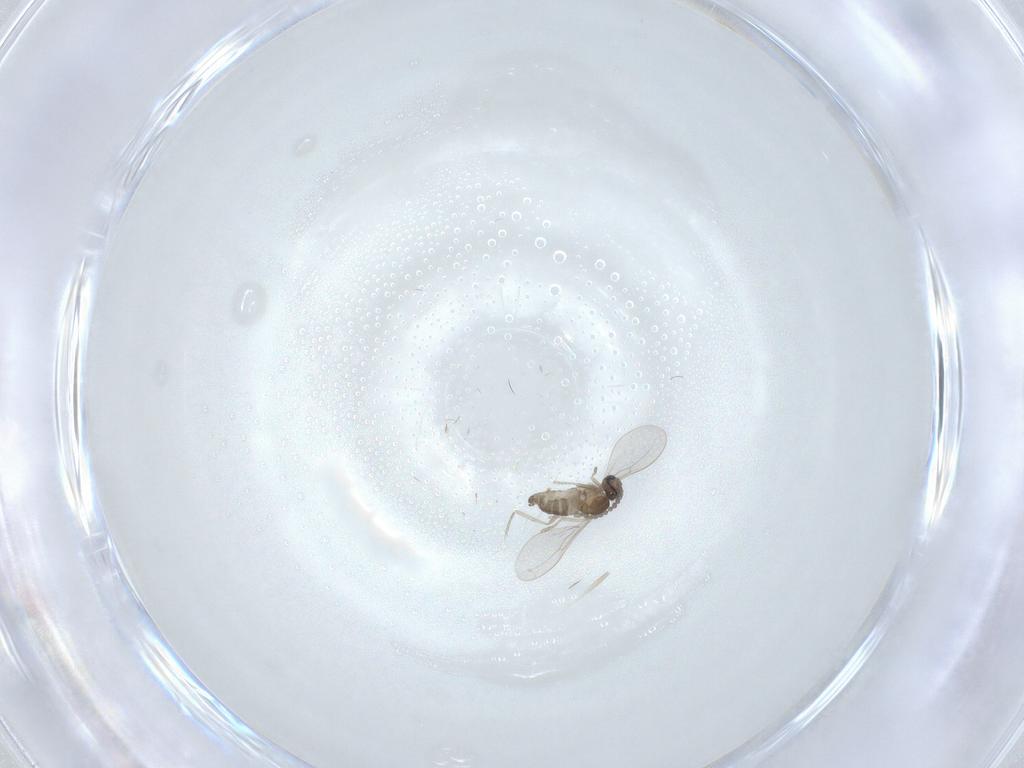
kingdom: Animalia
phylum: Arthropoda
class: Insecta
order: Diptera
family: Cecidomyiidae
